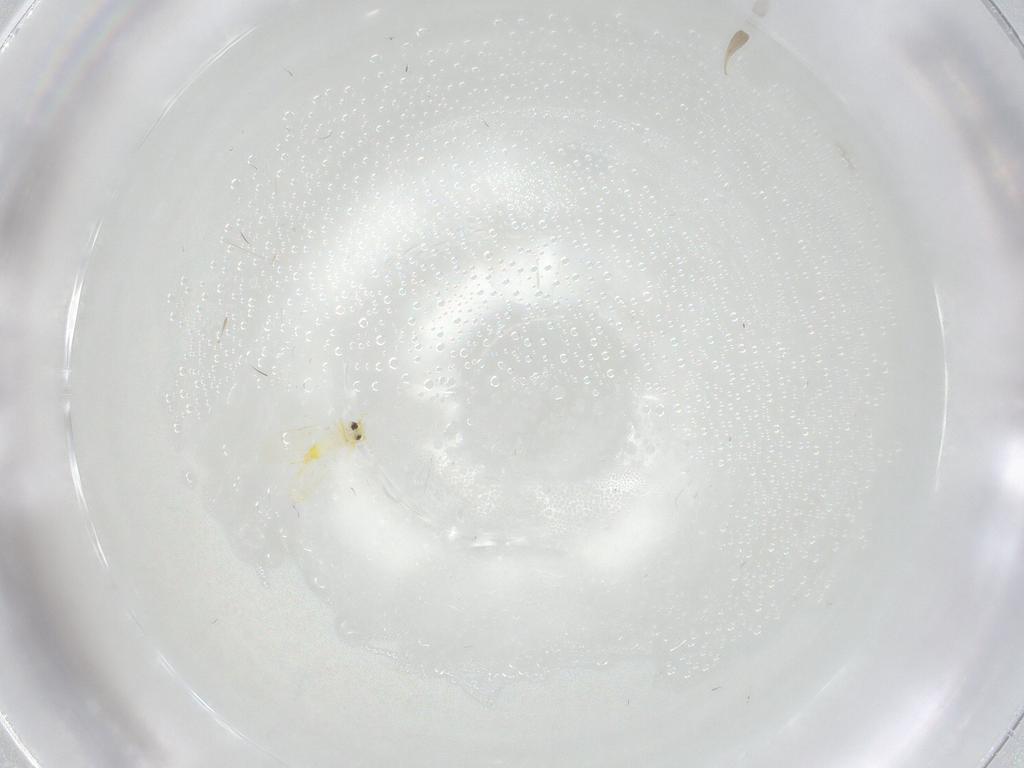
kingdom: Animalia
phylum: Arthropoda
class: Insecta
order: Hemiptera
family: Aleyrodidae
